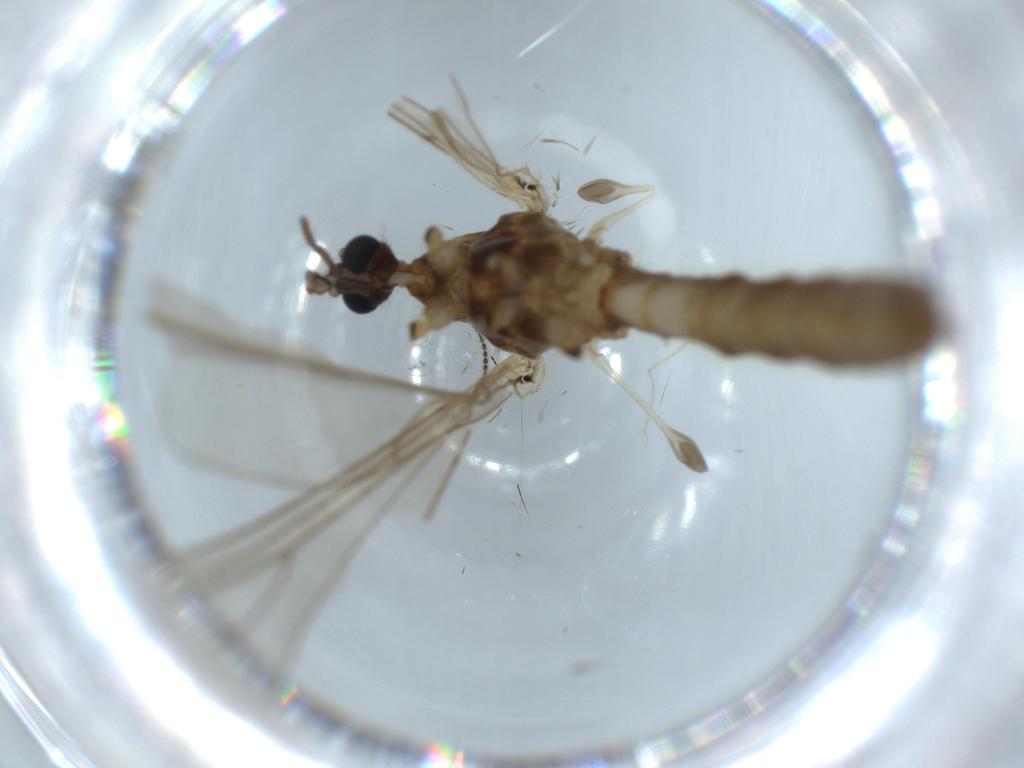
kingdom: Animalia
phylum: Arthropoda
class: Insecta
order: Diptera
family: Trichoceridae
